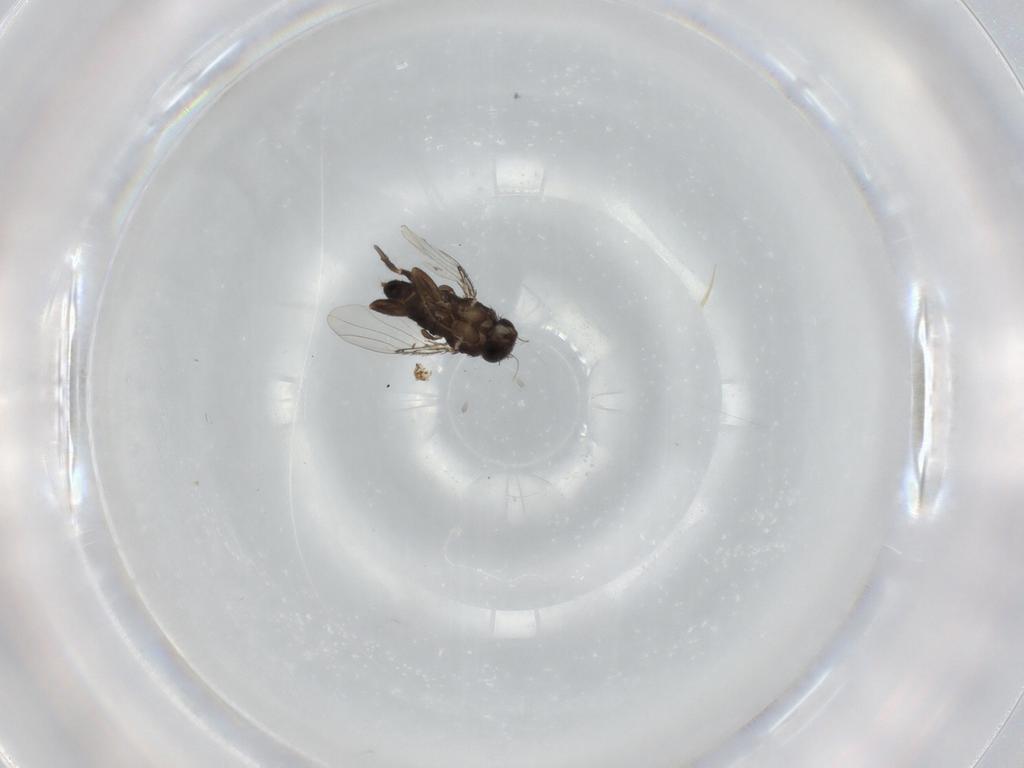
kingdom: Animalia
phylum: Arthropoda
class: Insecta
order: Diptera
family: Phoridae
